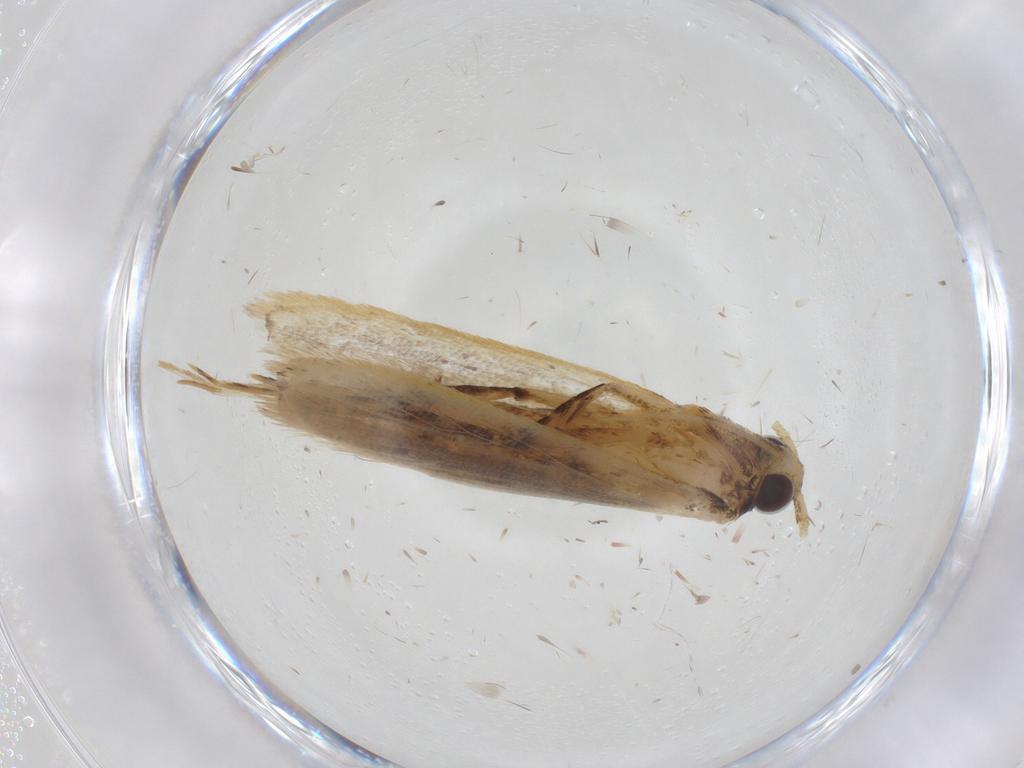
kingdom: Animalia
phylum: Arthropoda
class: Insecta
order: Lepidoptera
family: Lecithoceridae
